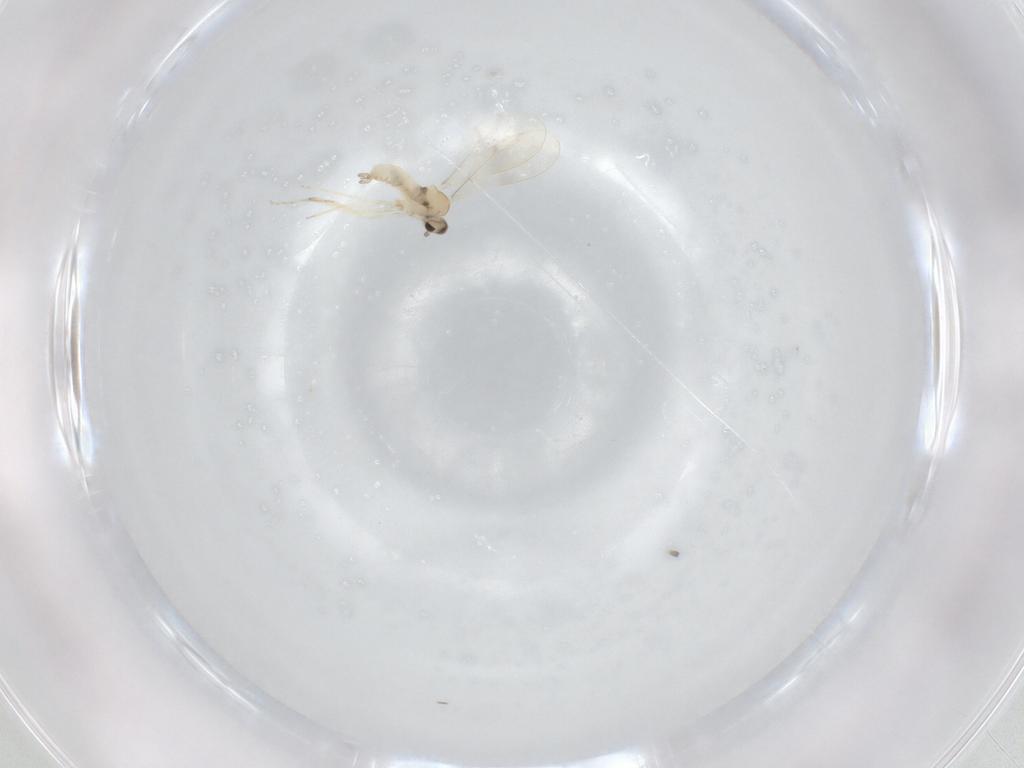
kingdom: Animalia
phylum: Arthropoda
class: Insecta
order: Diptera
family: Cecidomyiidae
